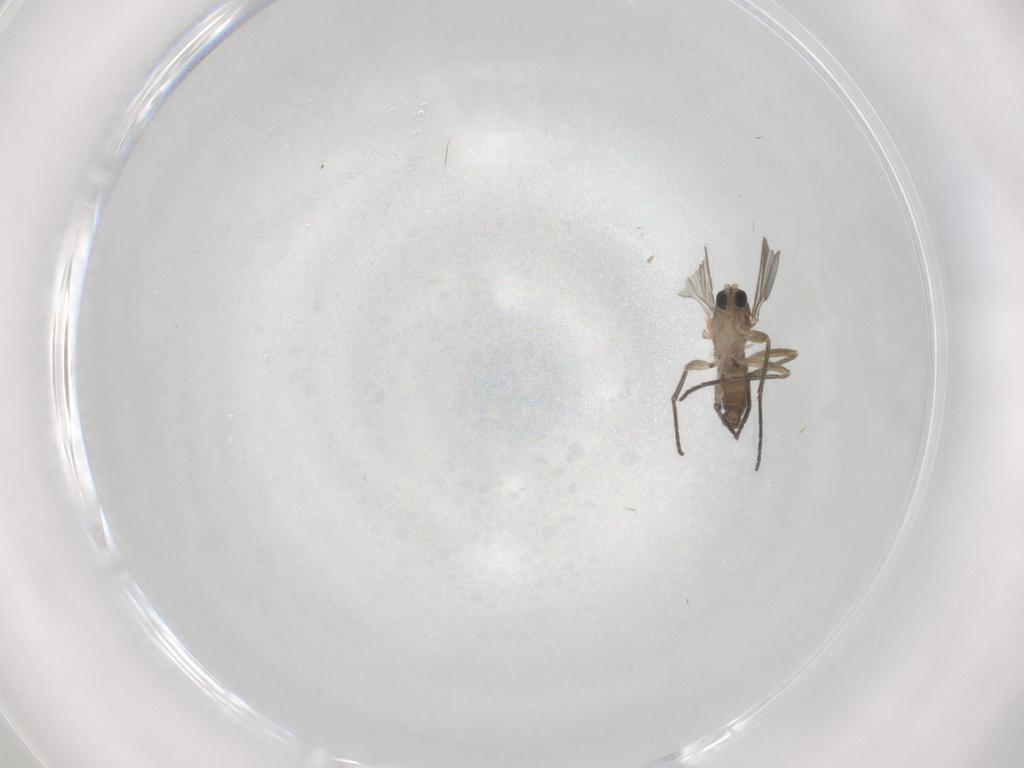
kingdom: Animalia
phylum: Arthropoda
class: Insecta
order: Diptera
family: Sciaridae
